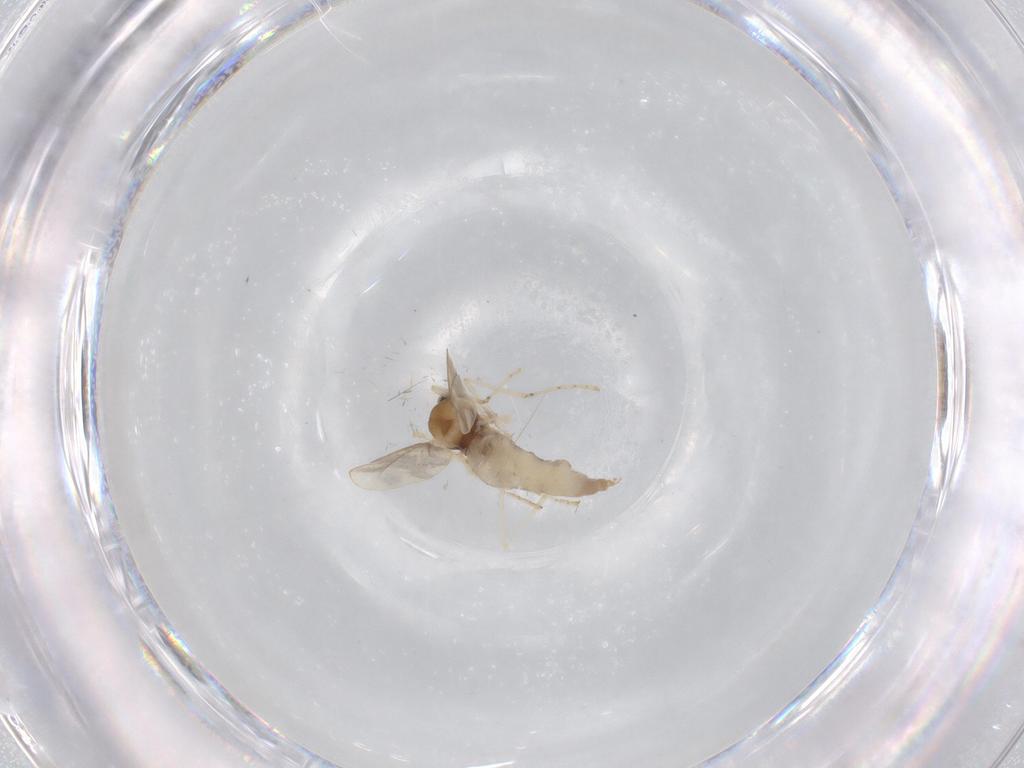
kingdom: Animalia
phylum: Arthropoda
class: Insecta
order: Diptera
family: Cecidomyiidae
